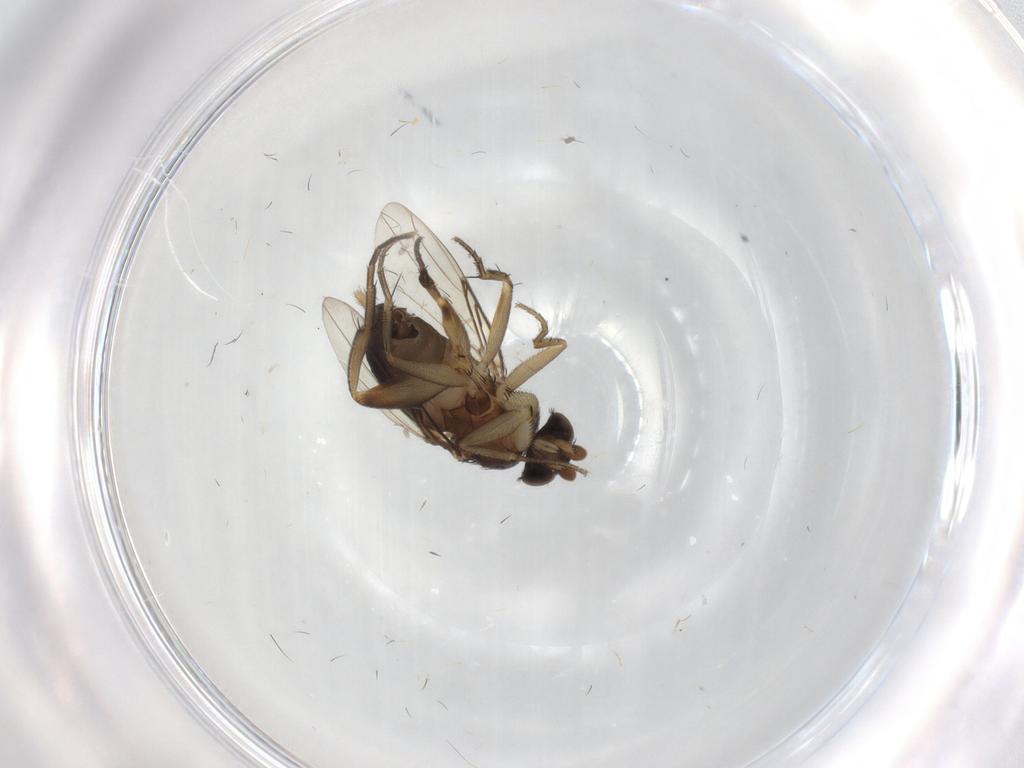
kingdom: Animalia
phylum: Arthropoda
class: Insecta
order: Diptera
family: Phoridae
